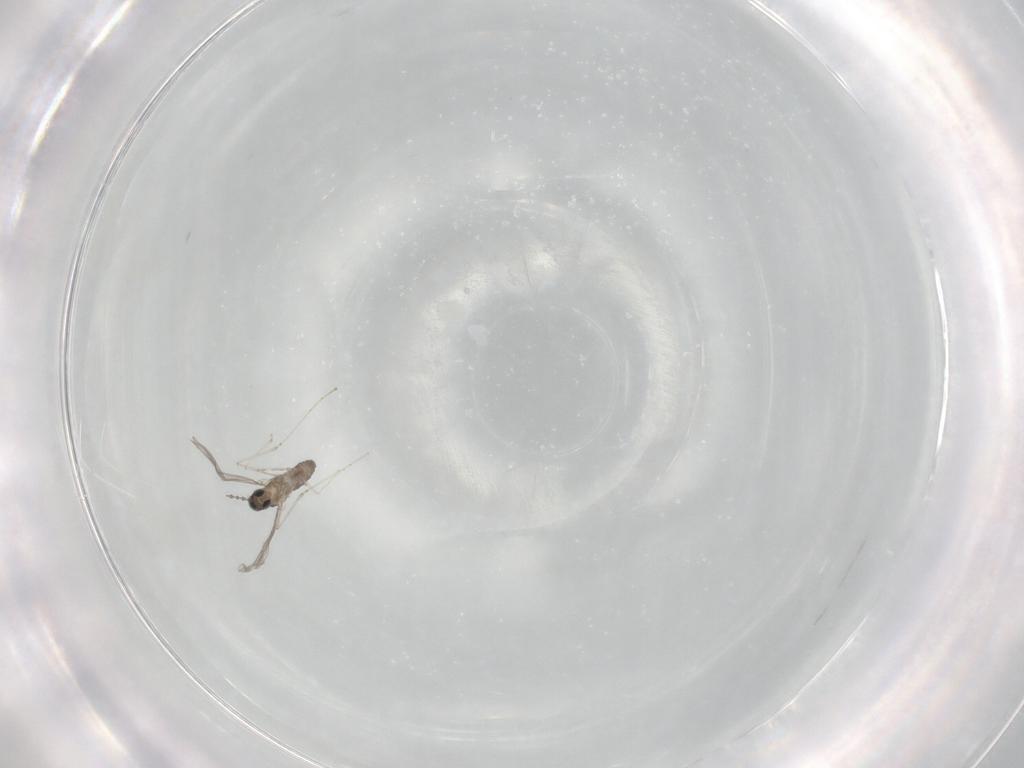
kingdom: Animalia
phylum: Arthropoda
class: Insecta
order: Diptera
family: Cecidomyiidae
